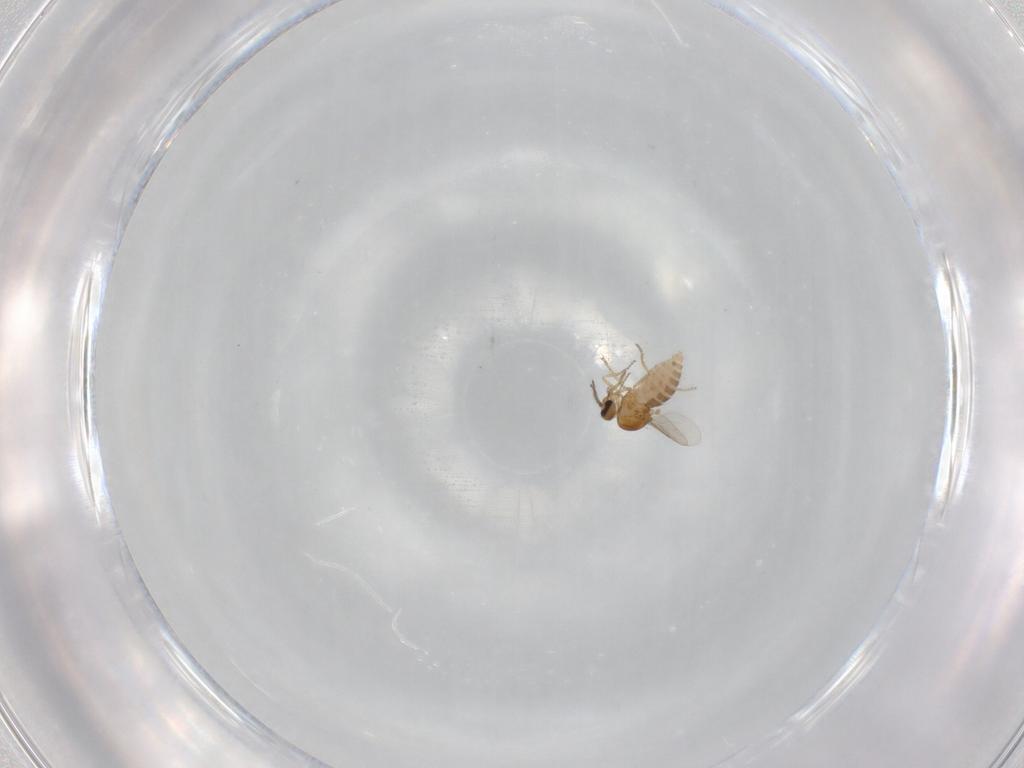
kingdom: Animalia
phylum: Arthropoda
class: Insecta
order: Diptera
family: Ceratopogonidae
